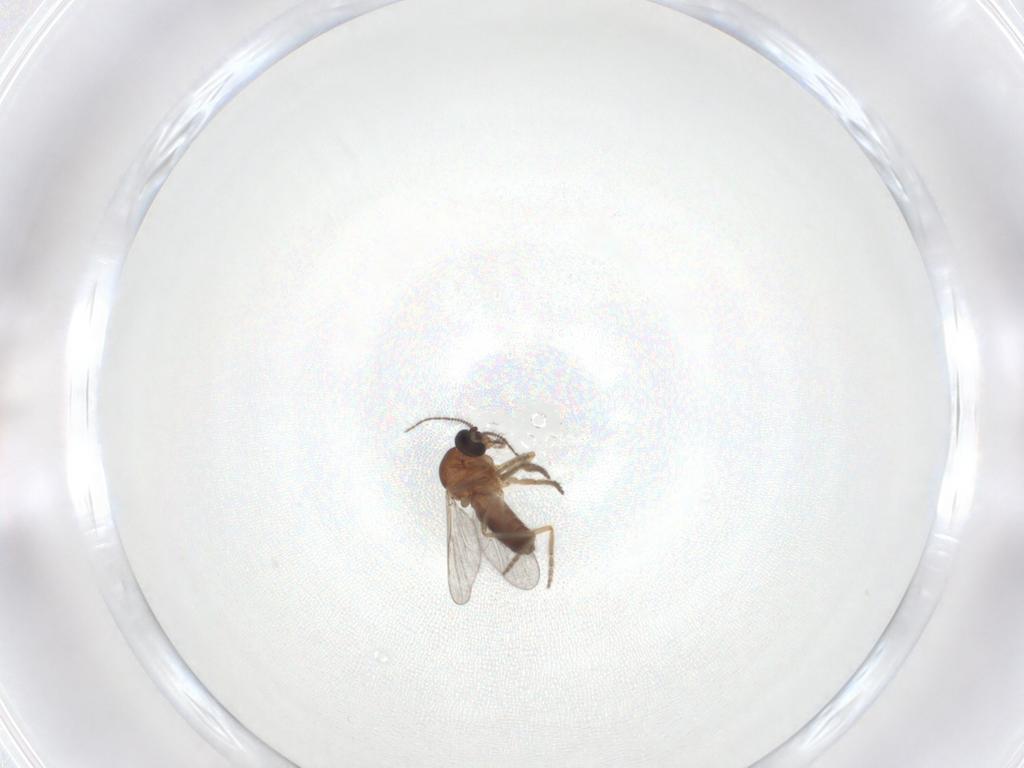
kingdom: Animalia
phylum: Arthropoda
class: Insecta
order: Diptera
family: Ceratopogonidae
